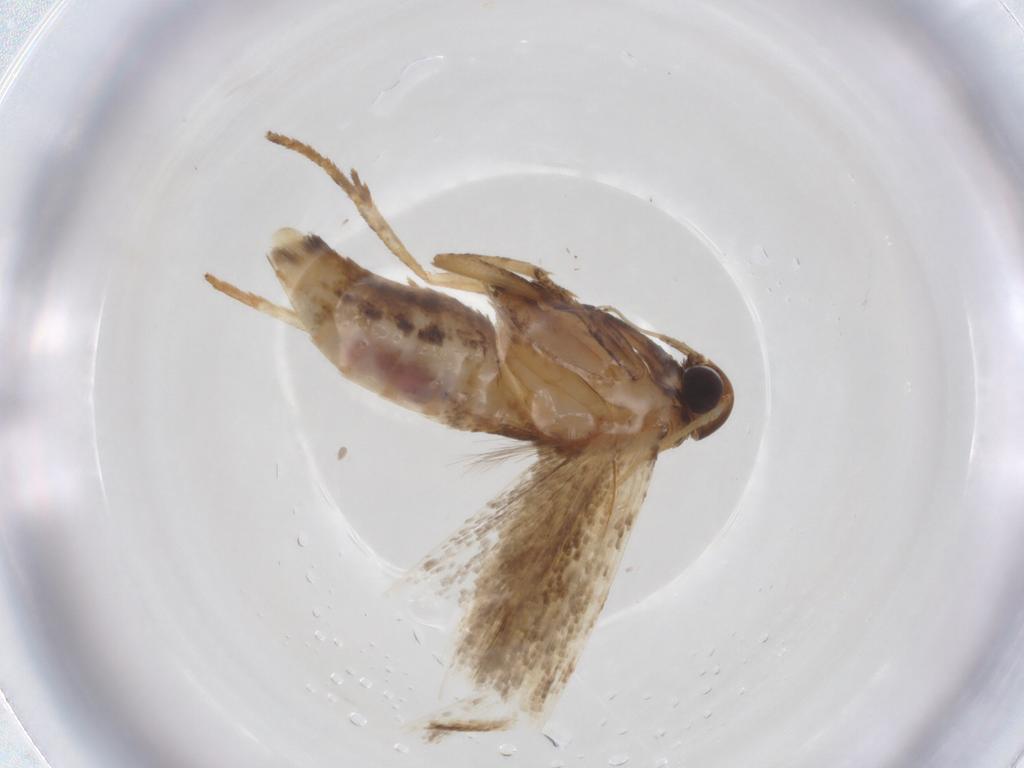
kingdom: Animalia
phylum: Arthropoda
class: Insecta
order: Lepidoptera
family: Gelechiidae
